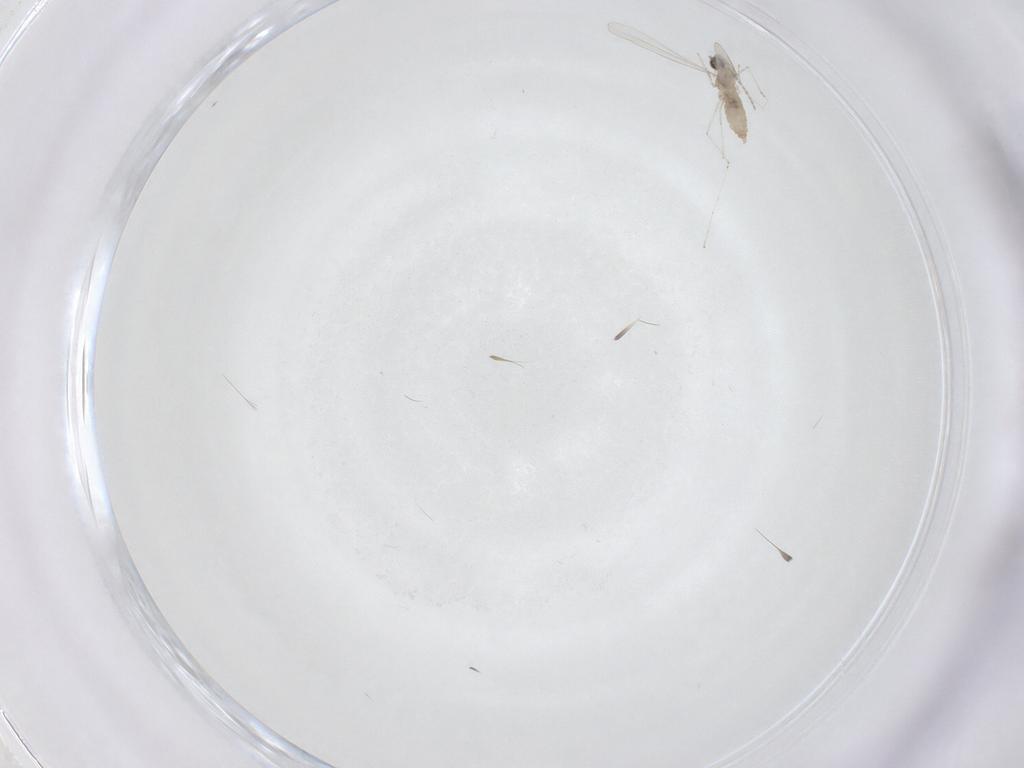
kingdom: Animalia
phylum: Arthropoda
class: Insecta
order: Diptera
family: Cecidomyiidae
